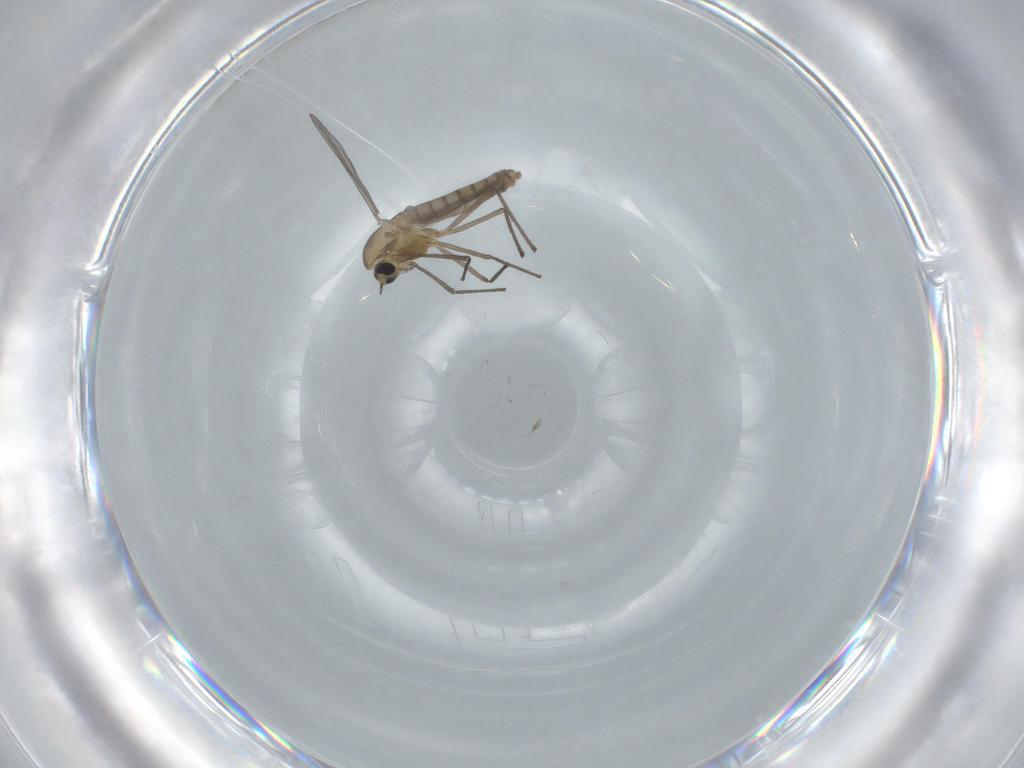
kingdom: Animalia
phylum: Arthropoda
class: Insecta
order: Diptera
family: Chironomidae
